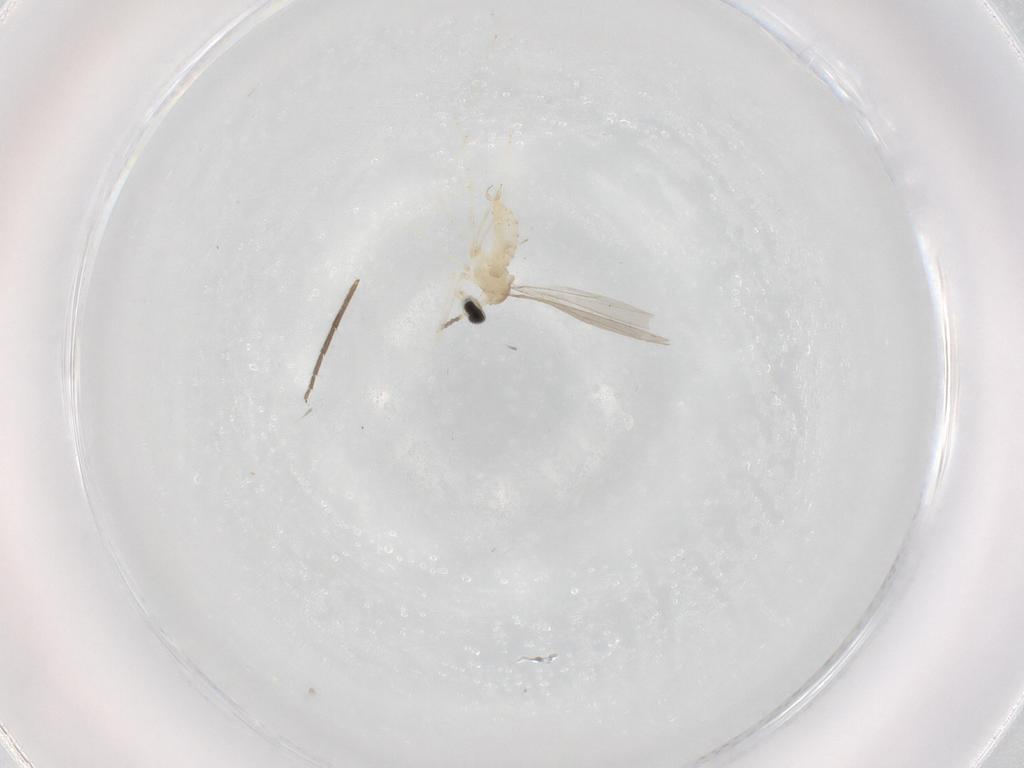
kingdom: Animalia
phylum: Arthropoda
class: Insecta
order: Diptera
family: Cecidomyiidae
